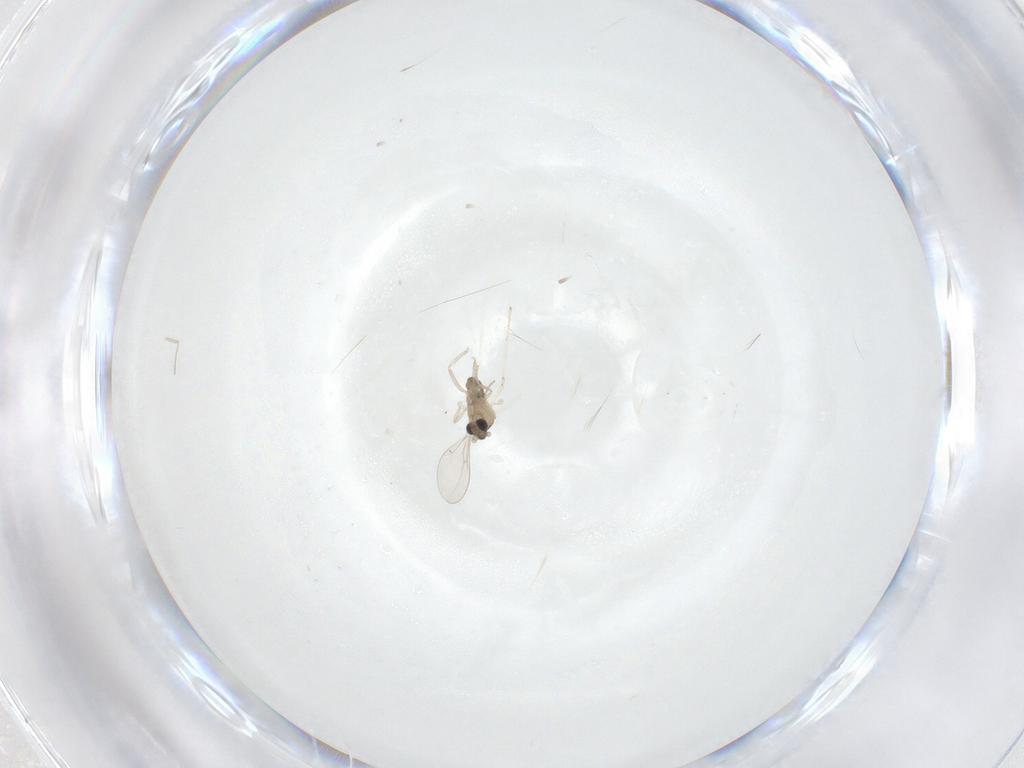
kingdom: Animalia
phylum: Arthropoda
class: Insecta
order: Diptera
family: Cecidomyiidae
